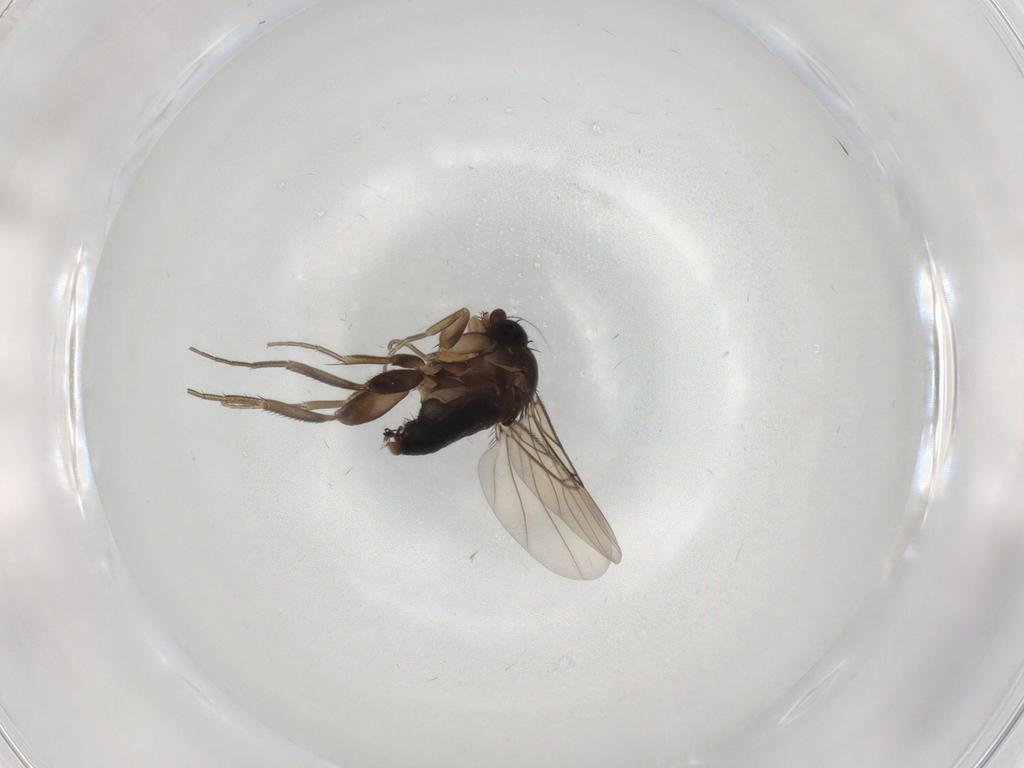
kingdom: Animalia
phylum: Arthropoda
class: Insecta
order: Diptera
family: Phoridae
